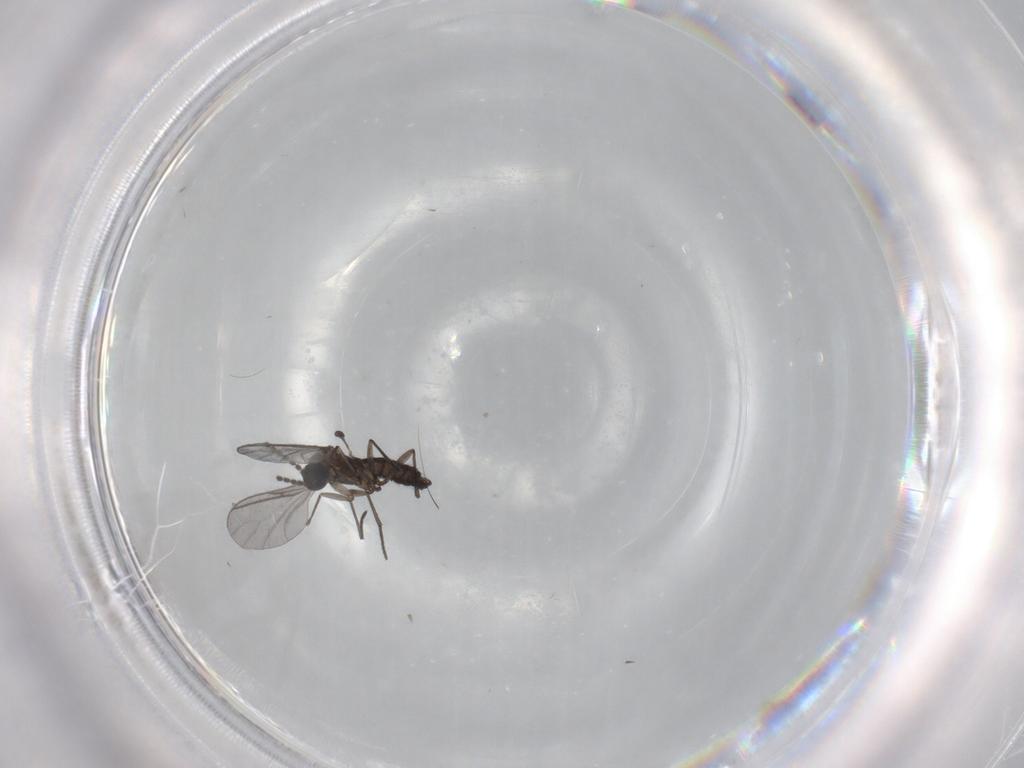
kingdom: Animalia
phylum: Arthropoda
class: Insecta
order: Diptera
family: Sciaridae
